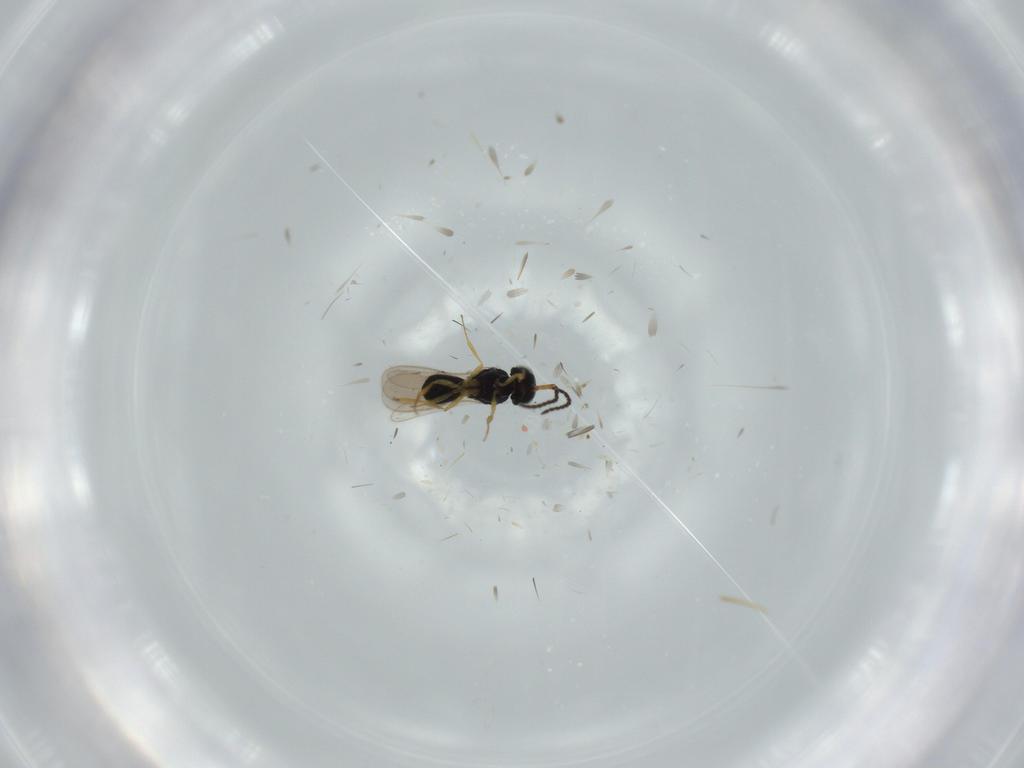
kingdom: Animalia
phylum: Arthropoda
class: Insecta
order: Hymenoptera
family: Scelionidae
